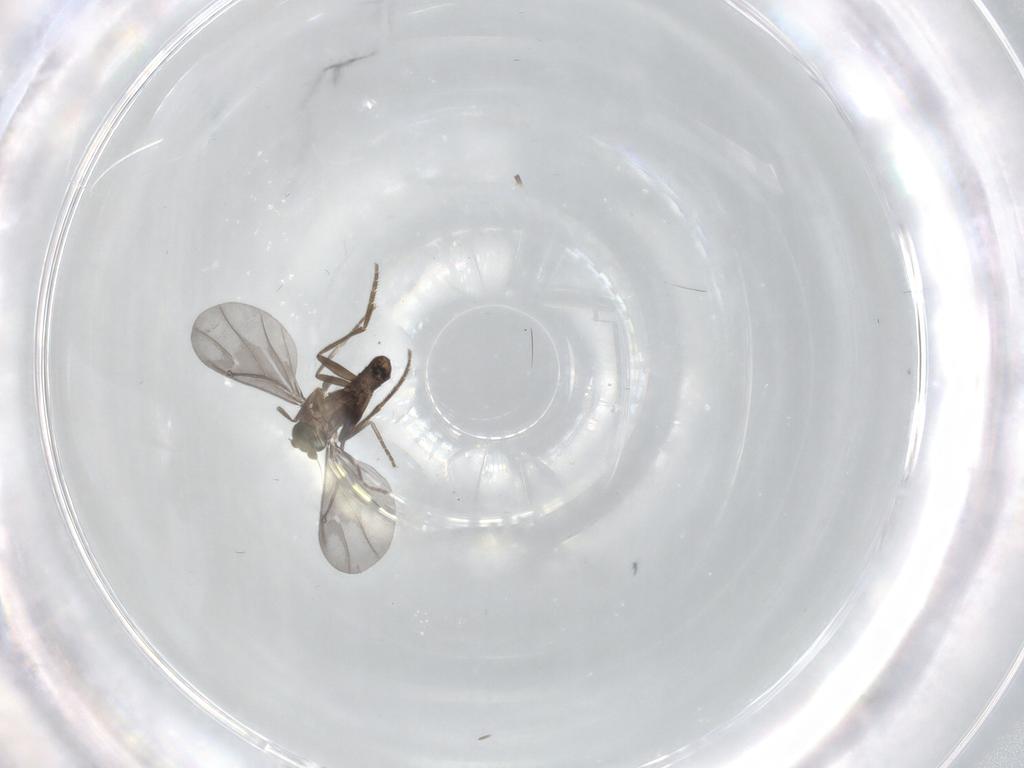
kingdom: Animalia
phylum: Arthropoda
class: Insecta
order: Diptera
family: Phoridae
